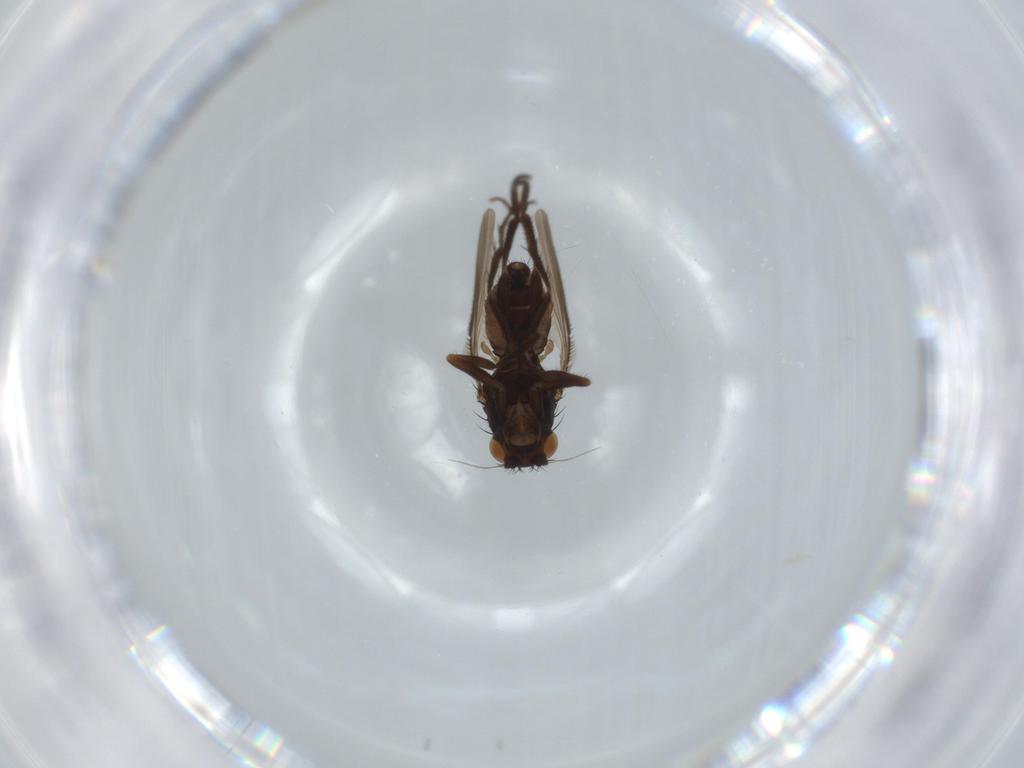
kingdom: Animalia
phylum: Arthropoda
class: Insecta
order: Diptera
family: Sphaeroceridae
